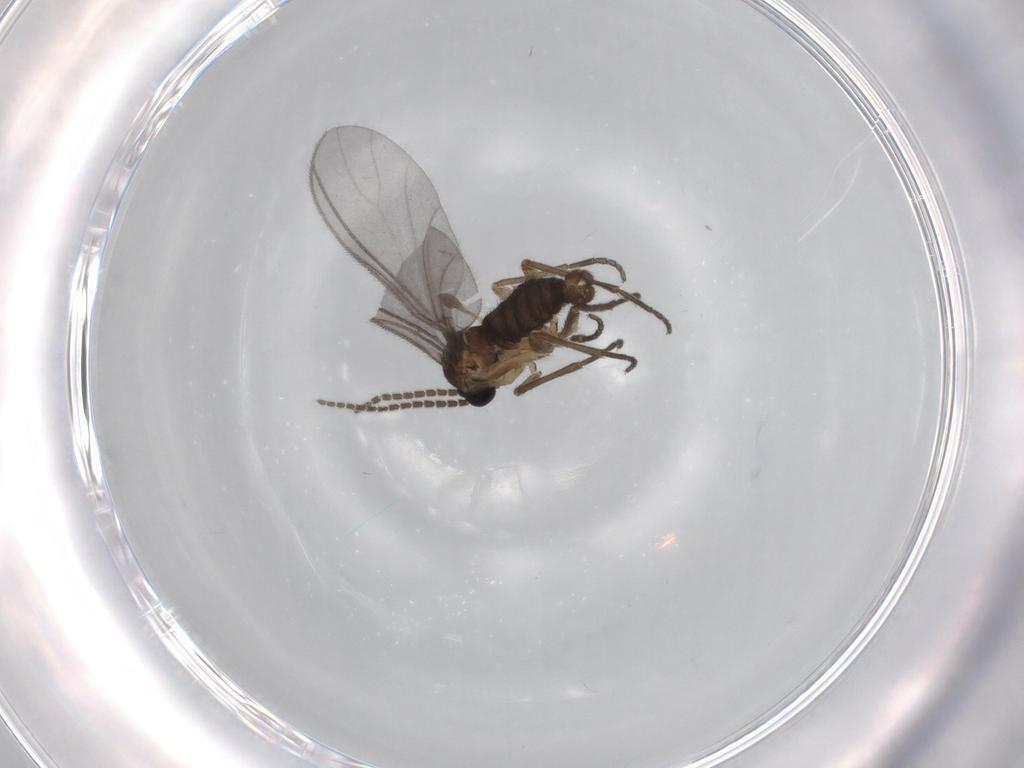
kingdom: Animalia
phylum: Arthropoda
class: Insecta
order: Diptera
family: Sciaridae
